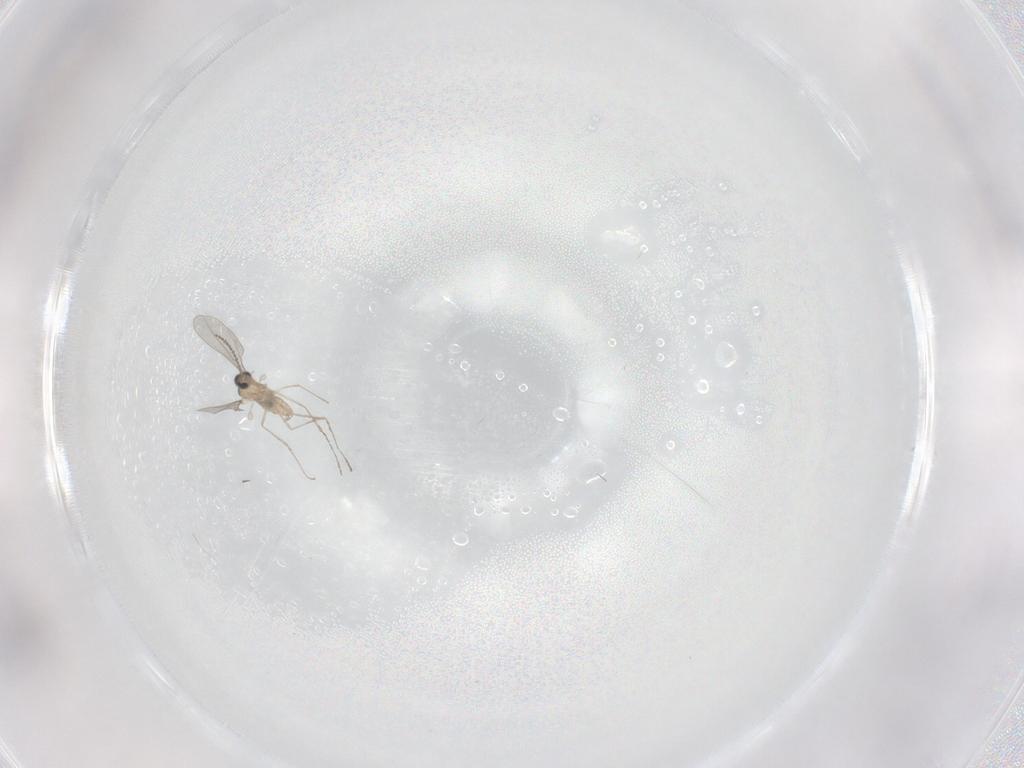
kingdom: Animalia
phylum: Arthropoda
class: Insecta
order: Diptera
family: Cecidomyiidae
